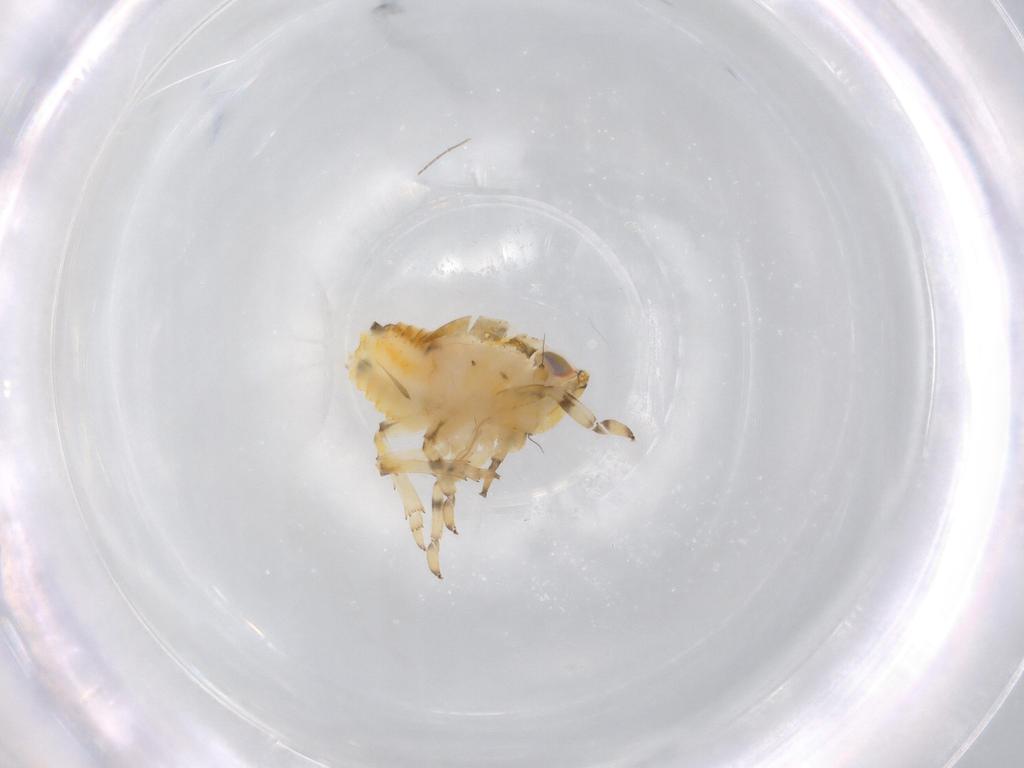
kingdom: Animalia
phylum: Arthropoda
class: Insecta
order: Hemiptera
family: Issidae
